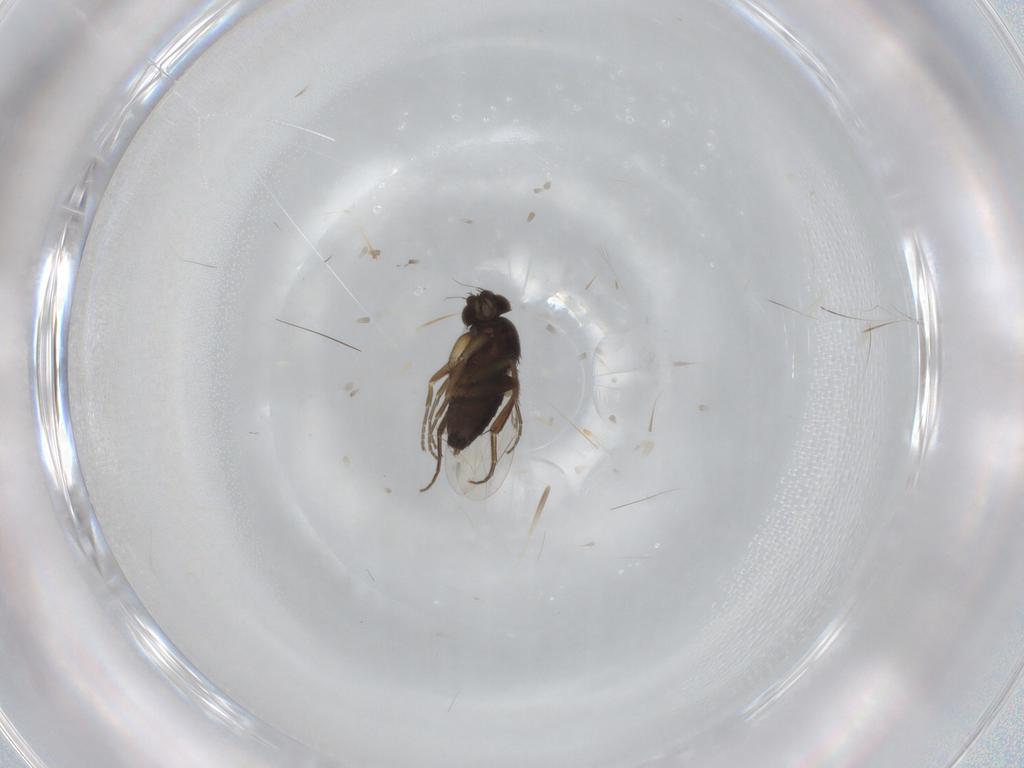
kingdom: Animalia
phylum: Arthropoda
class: Insecta
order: Diptera
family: Phoridae
